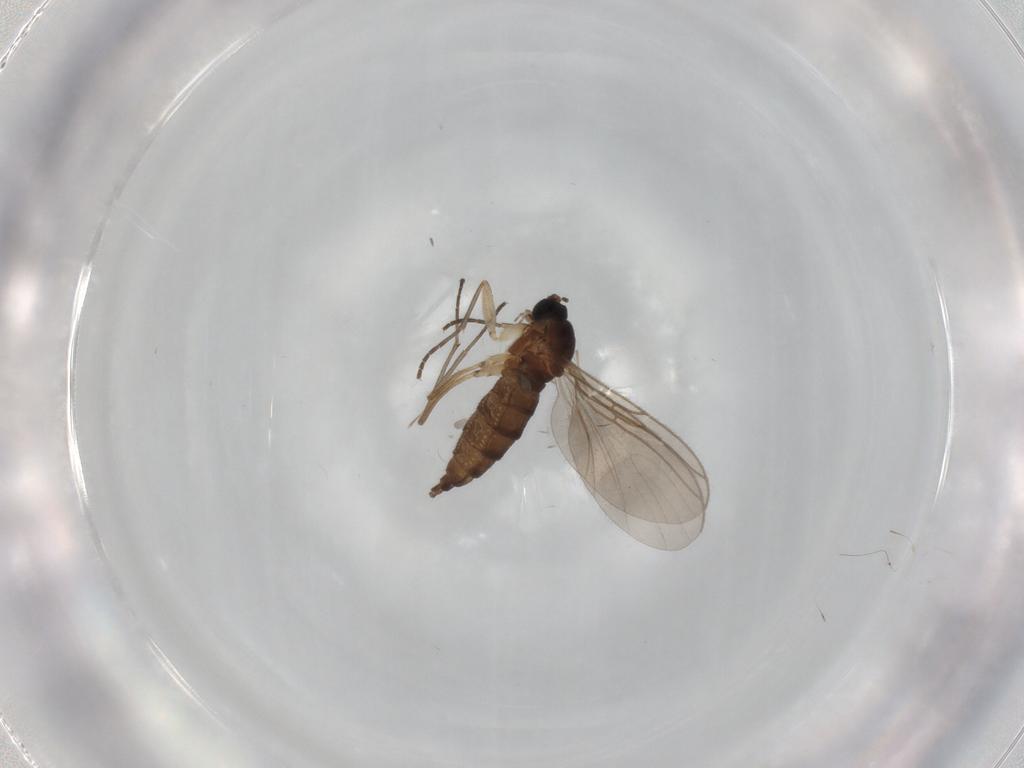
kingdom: Animalia
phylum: Arthropoda
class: Insecta
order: Diptera
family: Sciaridae
